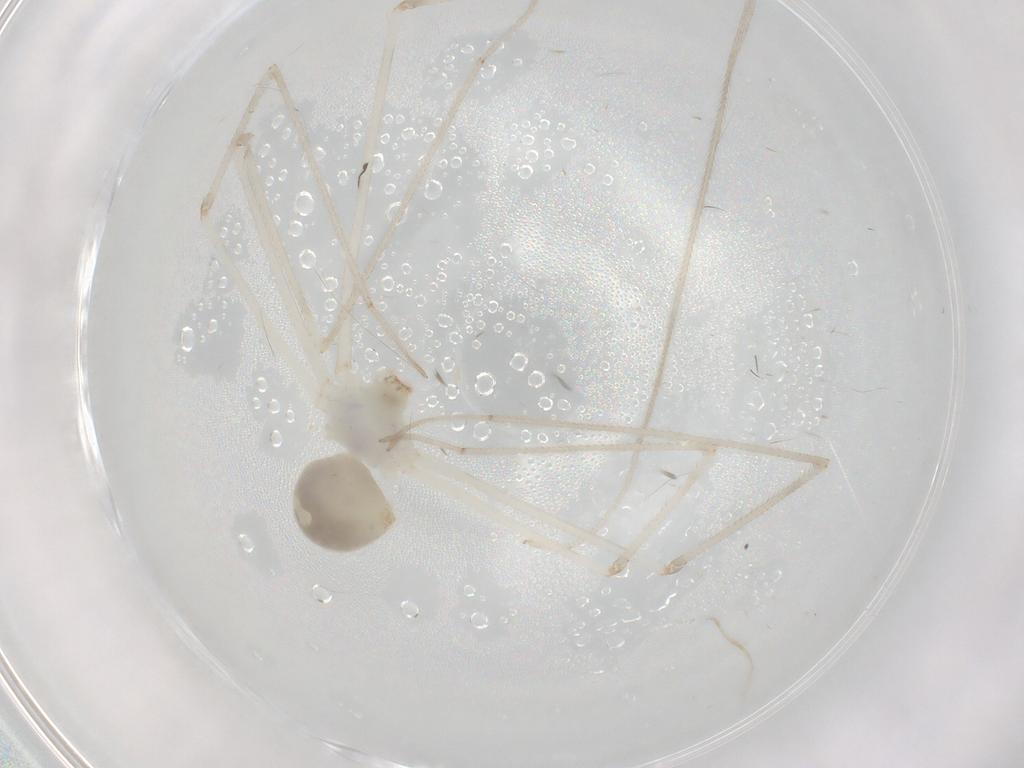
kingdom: Animalia
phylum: Arthropoda
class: Arachnida
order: Araneae
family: Pholcidae
